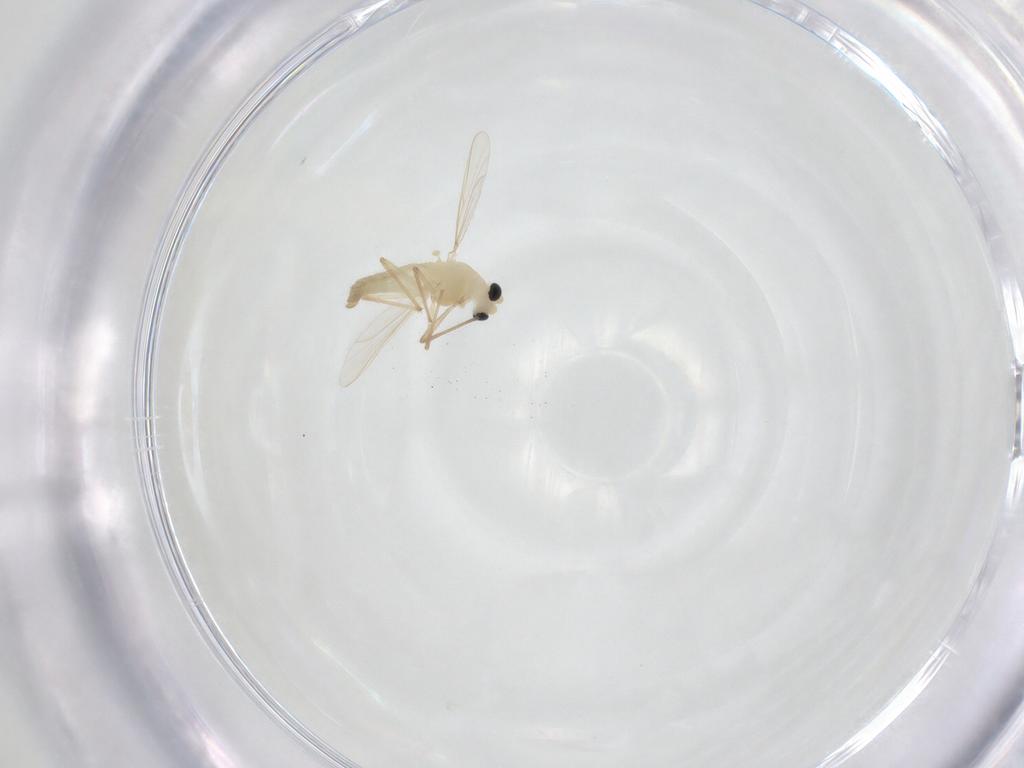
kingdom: Animalia
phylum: Arthropoda
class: Insecta
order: Diptera
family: Chironomidae
